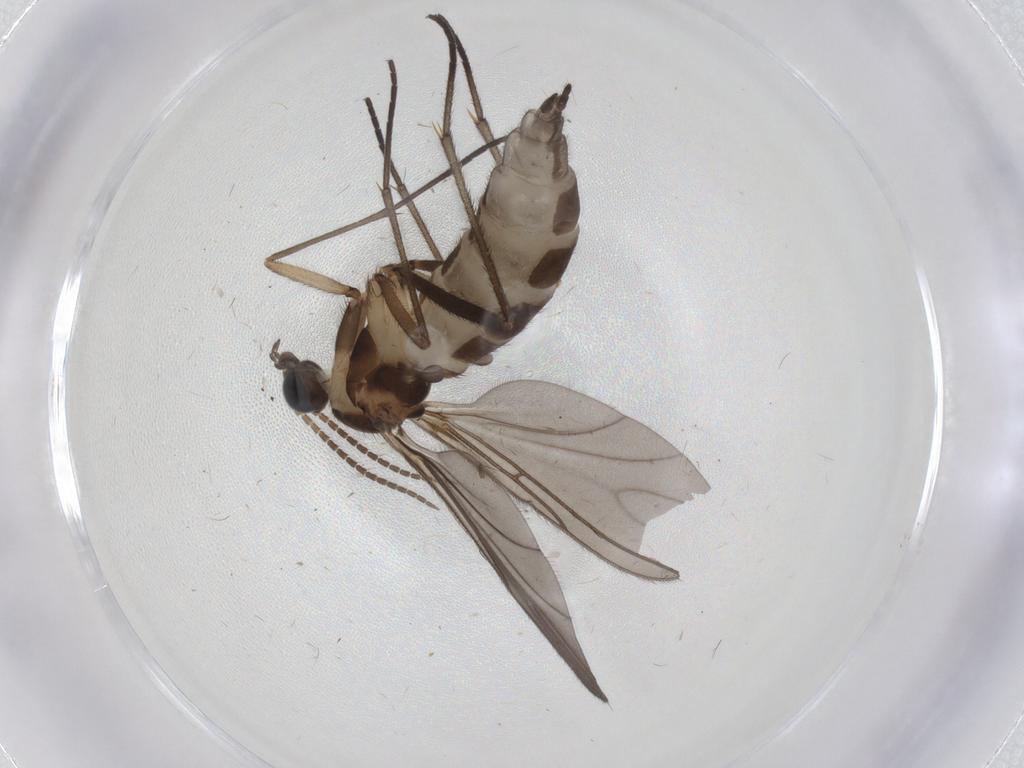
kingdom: Animalia
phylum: Arthropoda
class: Insecta
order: Diptera
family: Sciaridae
